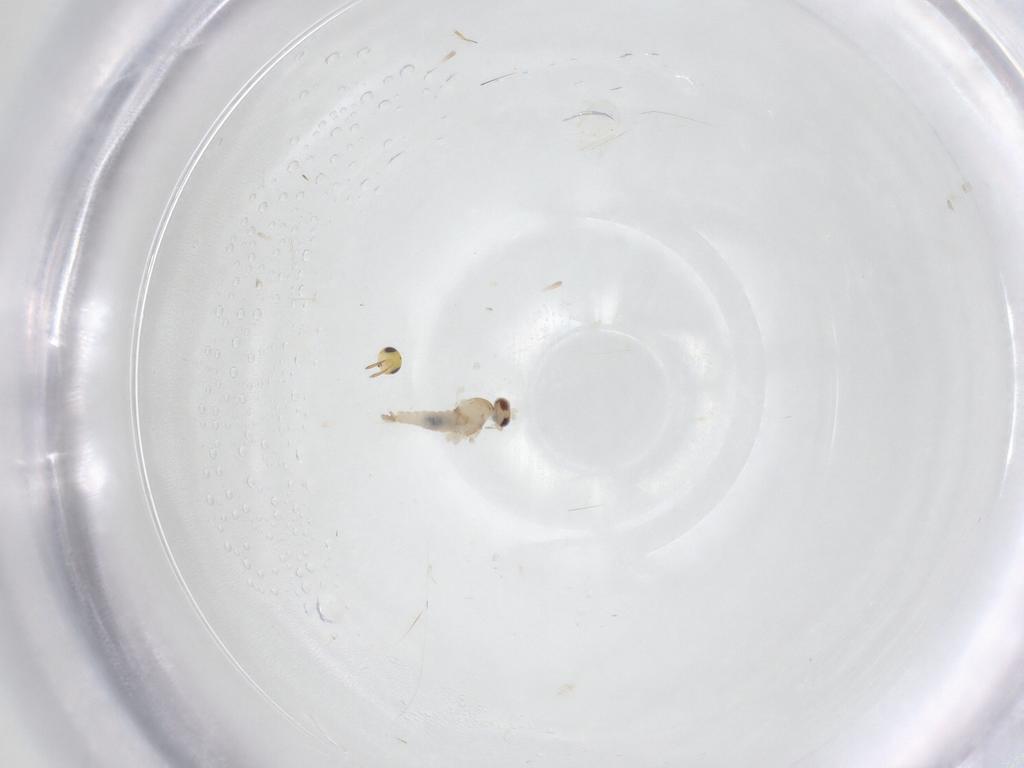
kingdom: Animalia
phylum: Arthropoda
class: Insecta
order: Diptera
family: Cecidomyiidae
